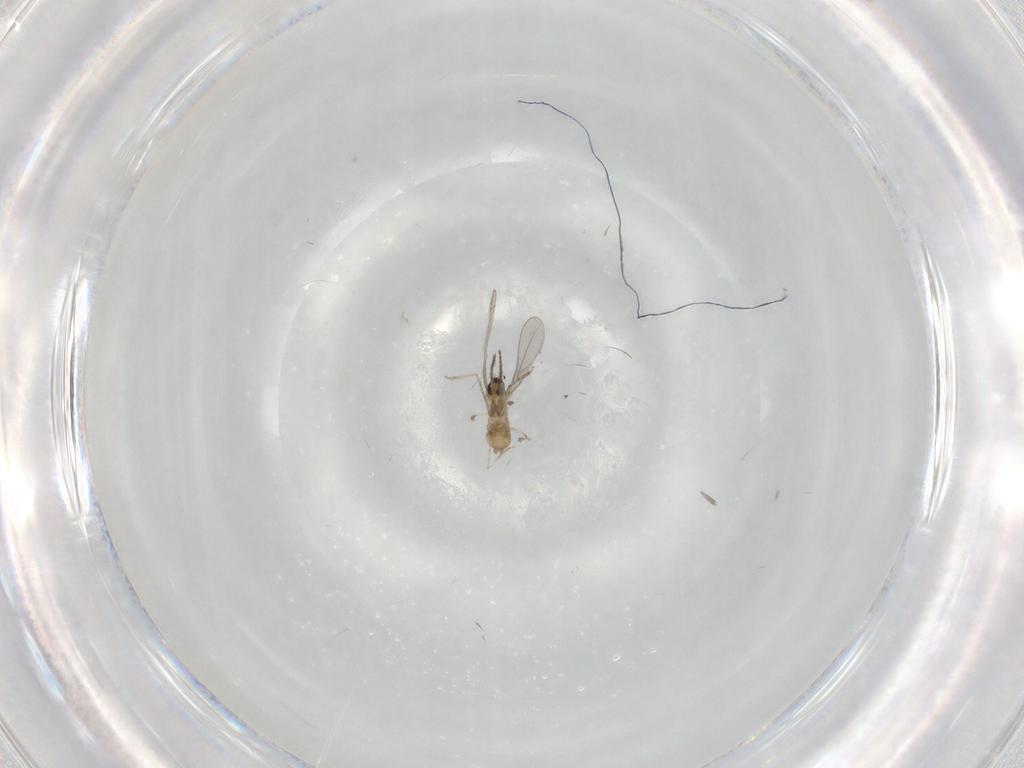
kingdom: Animalia
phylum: Arthropoda
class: Insecta
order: Diptera
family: Cecidomyiidae
